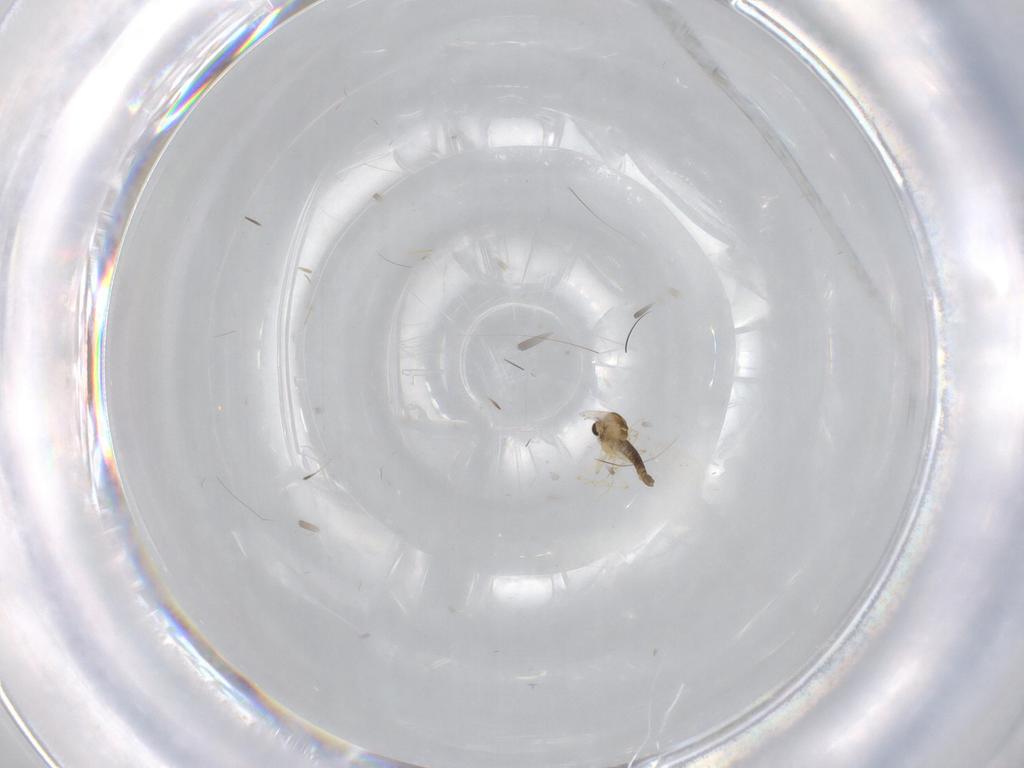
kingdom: Animalia
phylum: Arthropoda
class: Insecta
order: Diptera
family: Chironomidae
